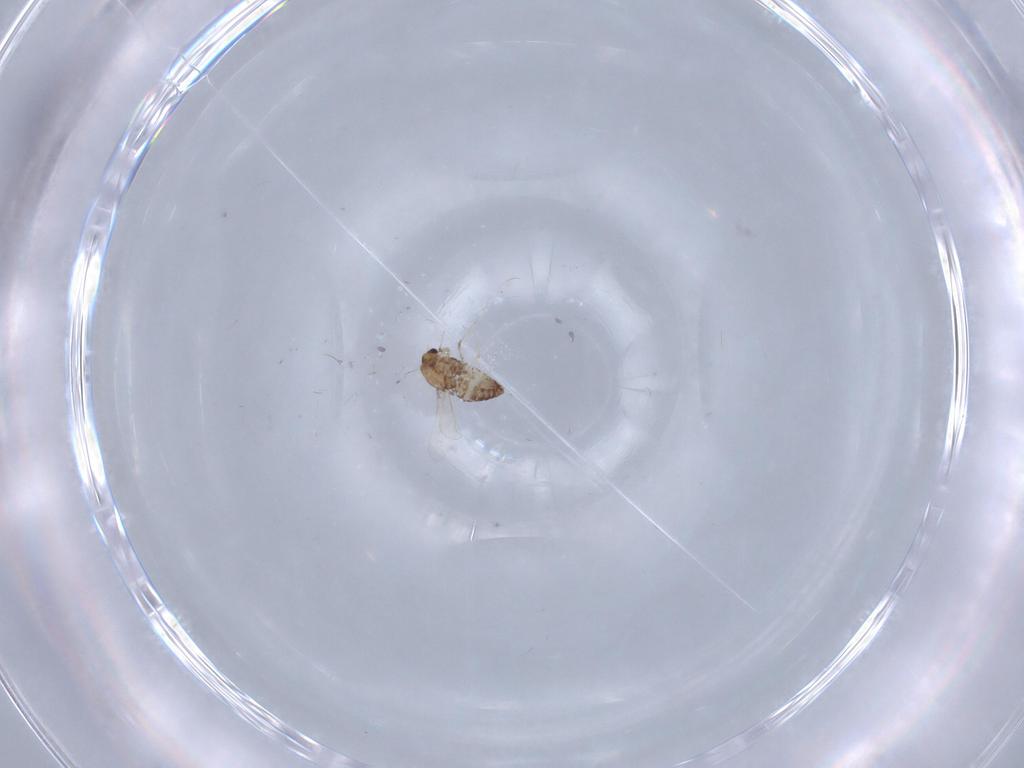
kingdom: Animalia
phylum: Arthropoda
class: Insecta
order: Diptera
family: Chironomidae
